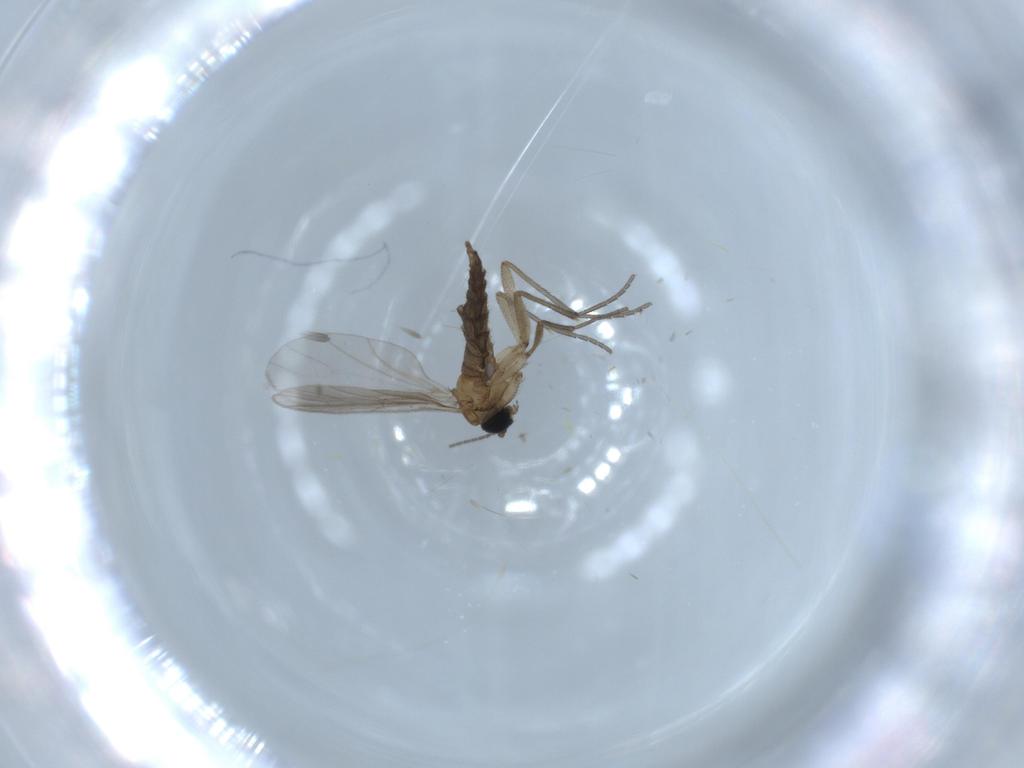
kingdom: Animalia
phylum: Arthropoda
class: Insecta
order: Diptera
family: Sciaridae
